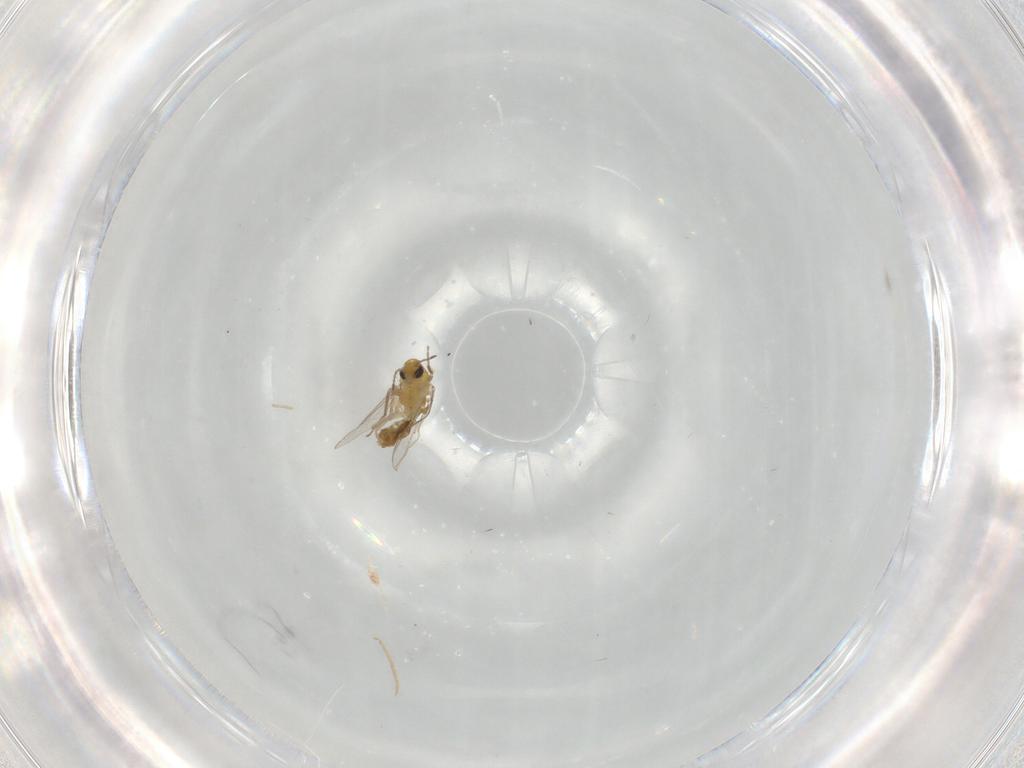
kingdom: Animalia
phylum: Arthropoda
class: Insecta
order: Diptera
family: Chironomidae
